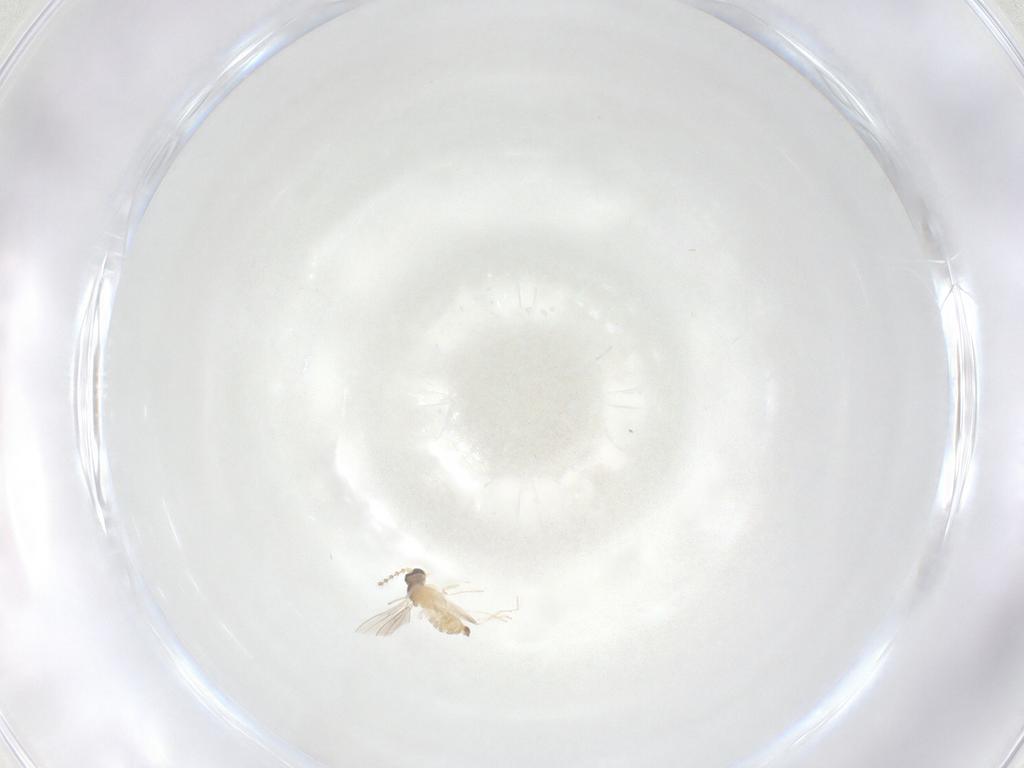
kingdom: Animalia
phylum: Arthropoda
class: Insecta
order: Diptera
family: Cecidomyiidae
